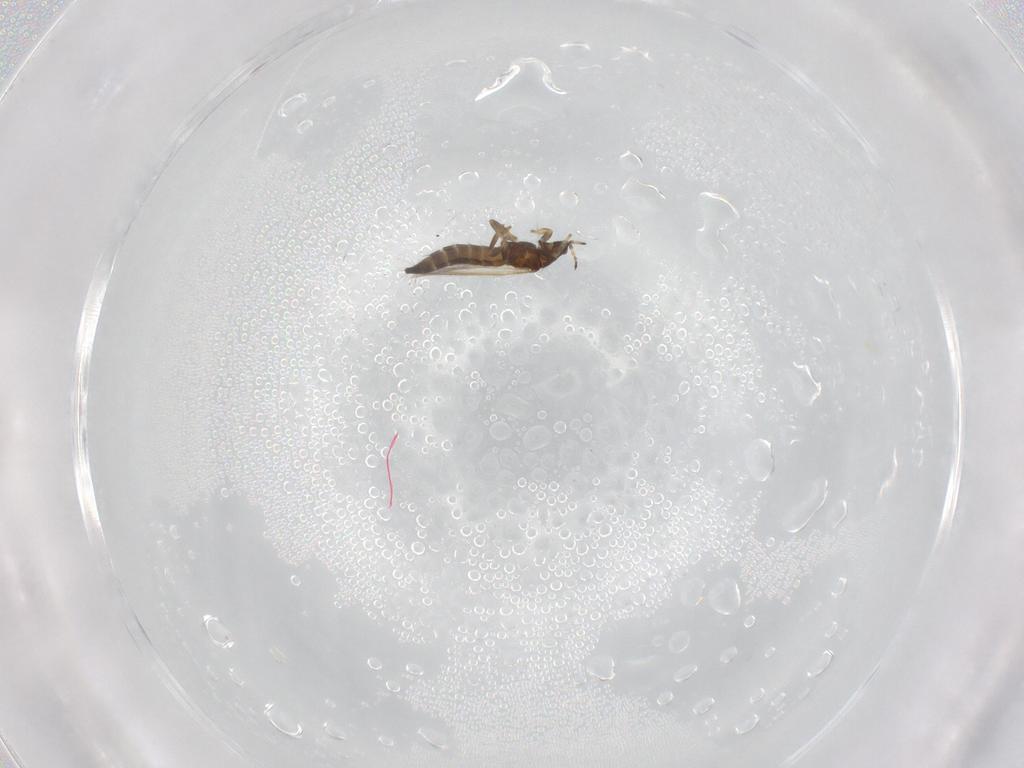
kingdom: Animalia
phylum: Arthropoda
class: Insecta
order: Thysanoptera
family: Thripidae
